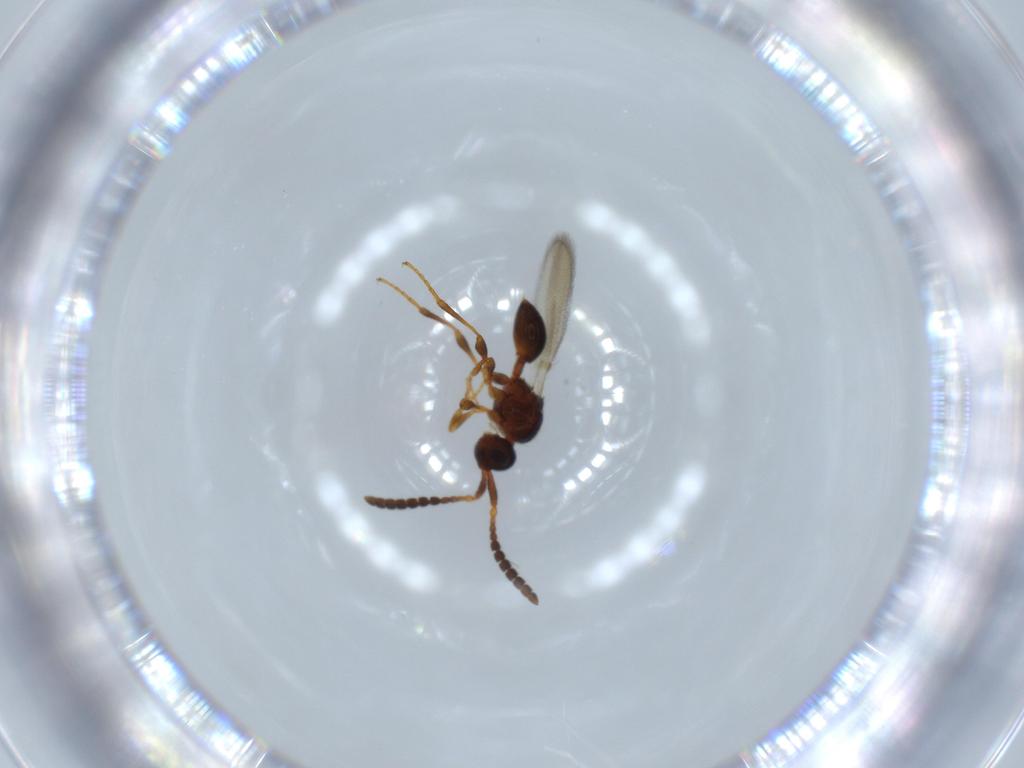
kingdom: Animalia
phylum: Arthropoda
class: Insecta
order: Hymenoptera
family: Diapriidae
